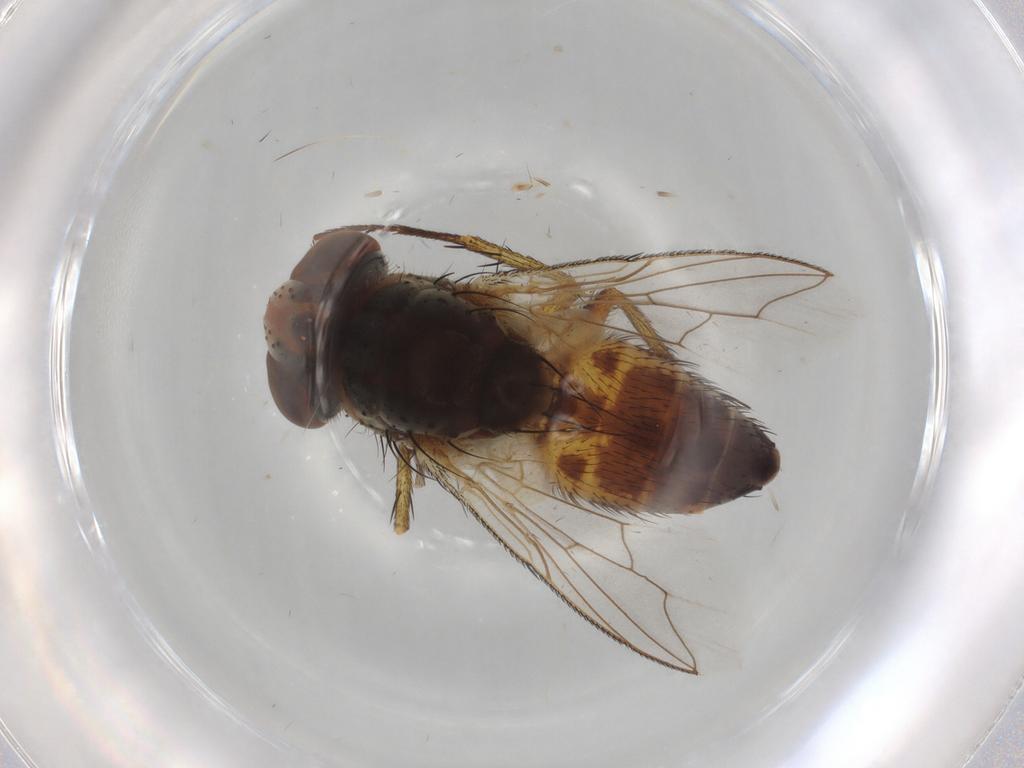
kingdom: Animalia
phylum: Arthropoda
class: Insecta
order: Diptera
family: Sarcophagidae
